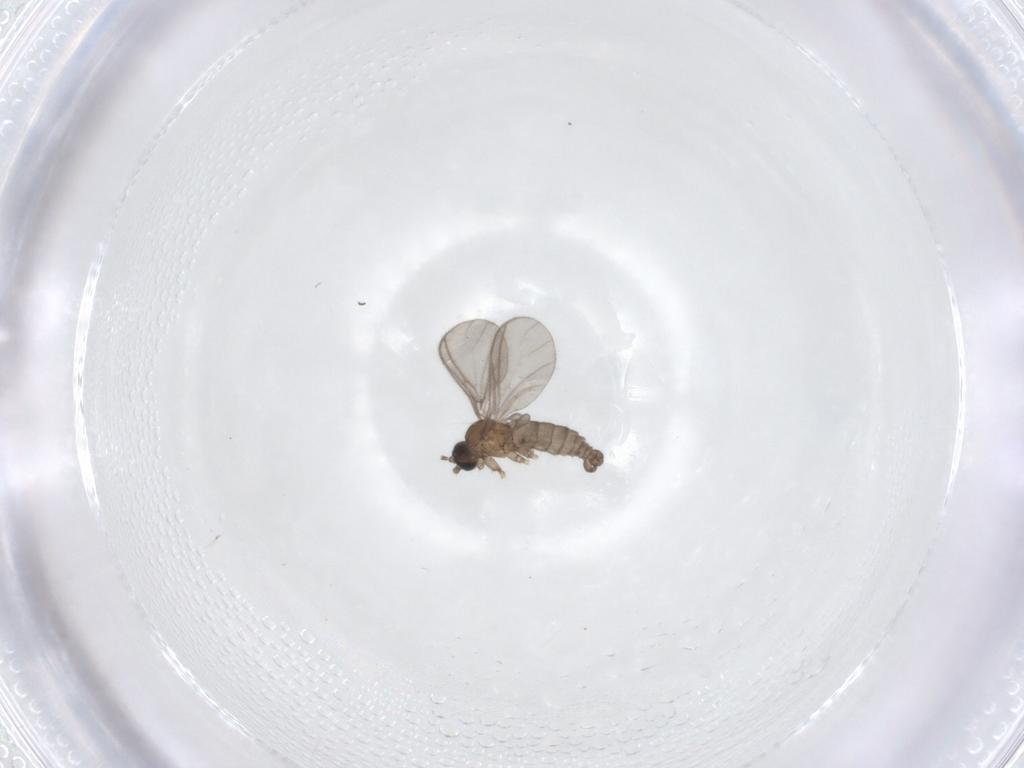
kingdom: Animalia
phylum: Arthropoda
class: Insecta
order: Diptera
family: Sciaridae
